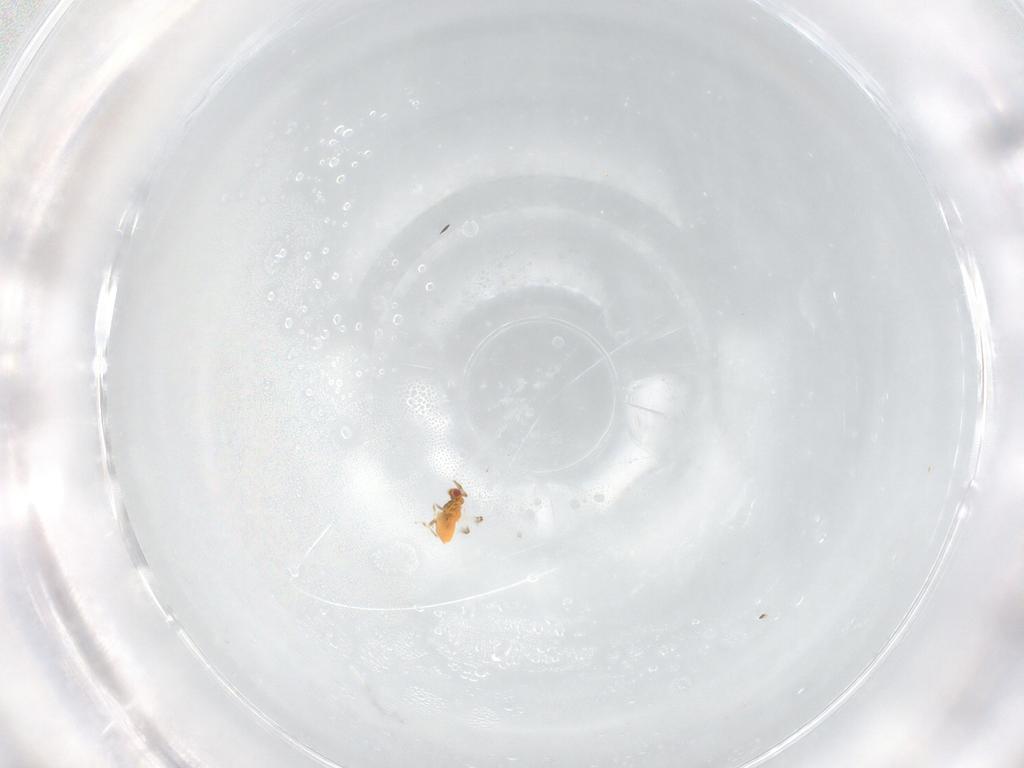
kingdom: Animalia
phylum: Arthropoda
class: Insecta
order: Hymenoptera
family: Trichogrammatidae
